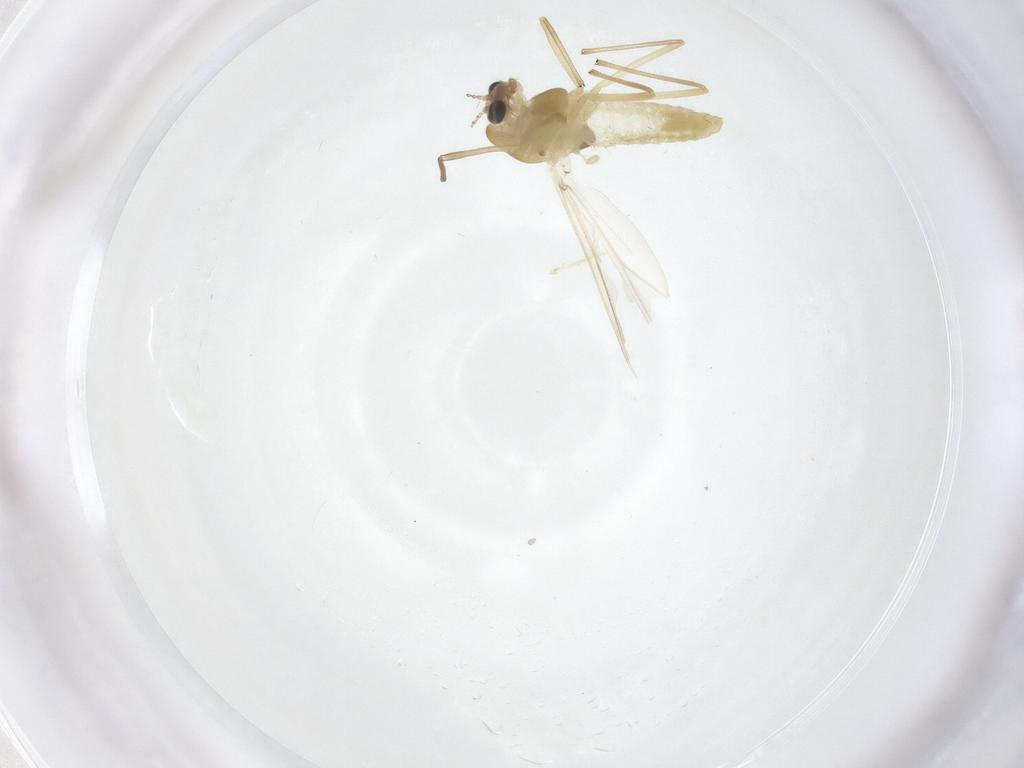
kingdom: Animalia
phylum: Arthropoda
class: Insecta
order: Diptera
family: Chironomidae
